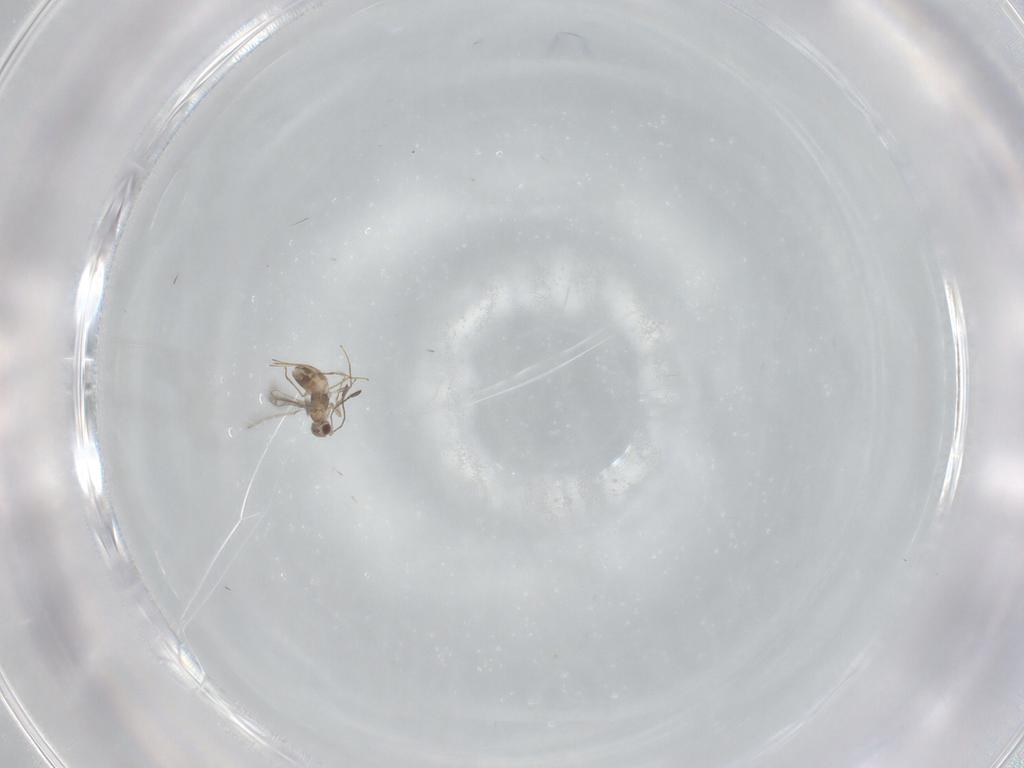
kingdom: Animalia
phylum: Arthropoda
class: Insecta
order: Hymenoptera
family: Mymaridae
